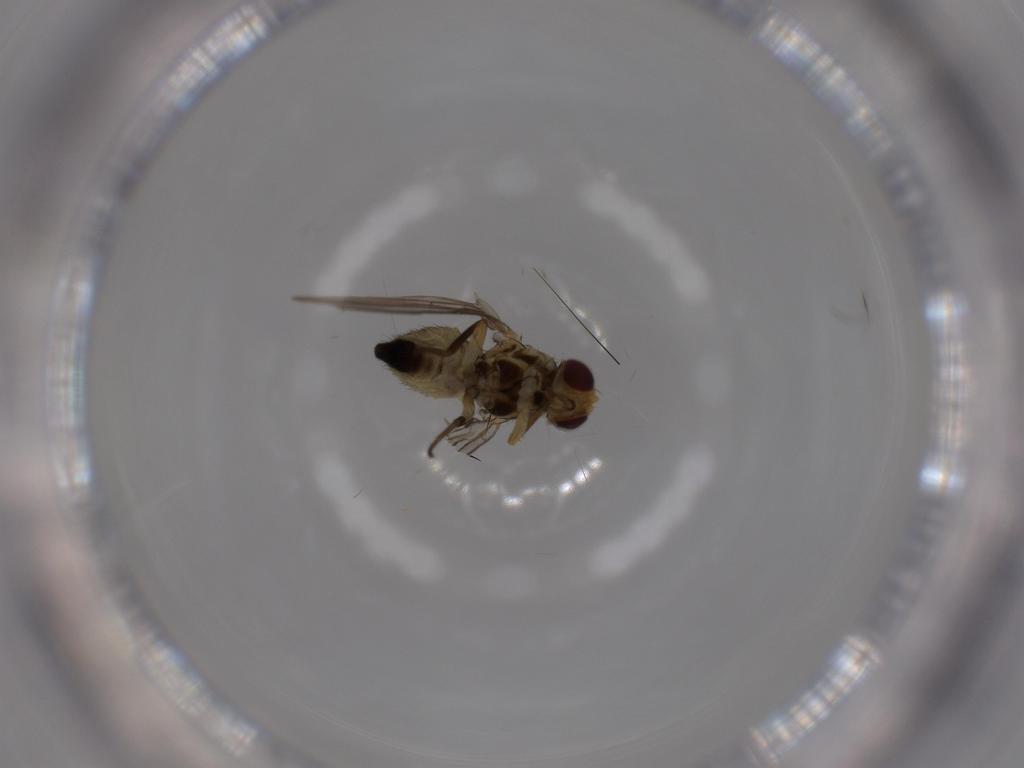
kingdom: Animalia
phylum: Arthropoda
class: Insecta
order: Diptera
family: Agromyzidae
